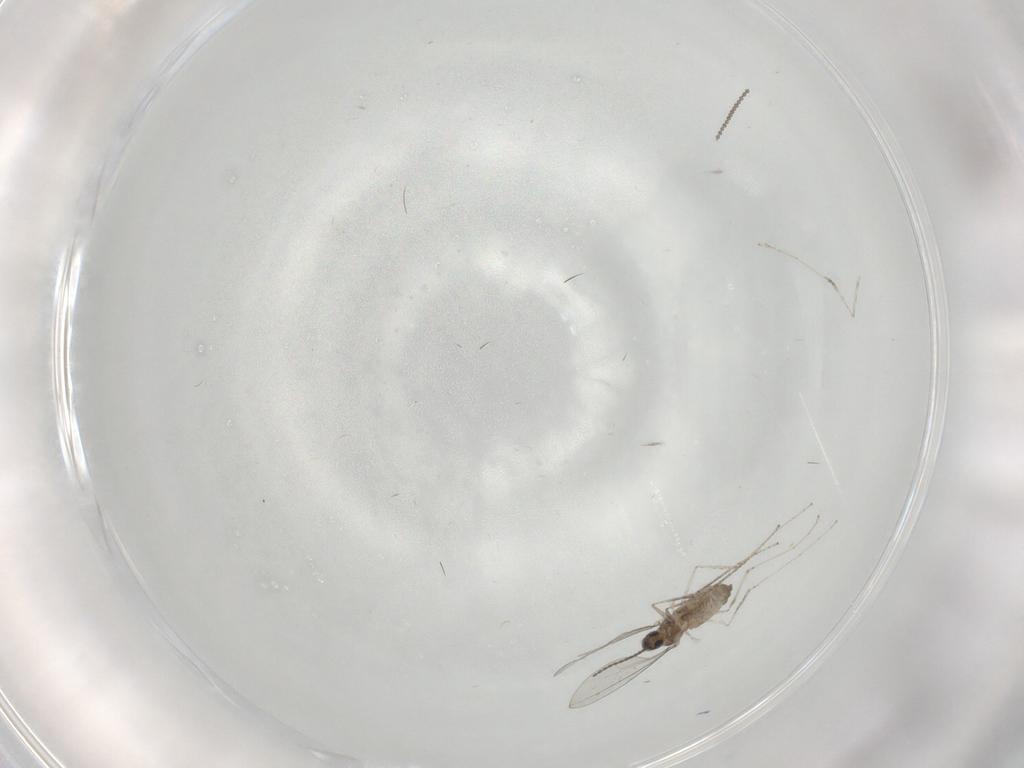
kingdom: Animalia
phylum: Arthropoda
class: Insecta
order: Diptera
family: Cecidomyiidae
